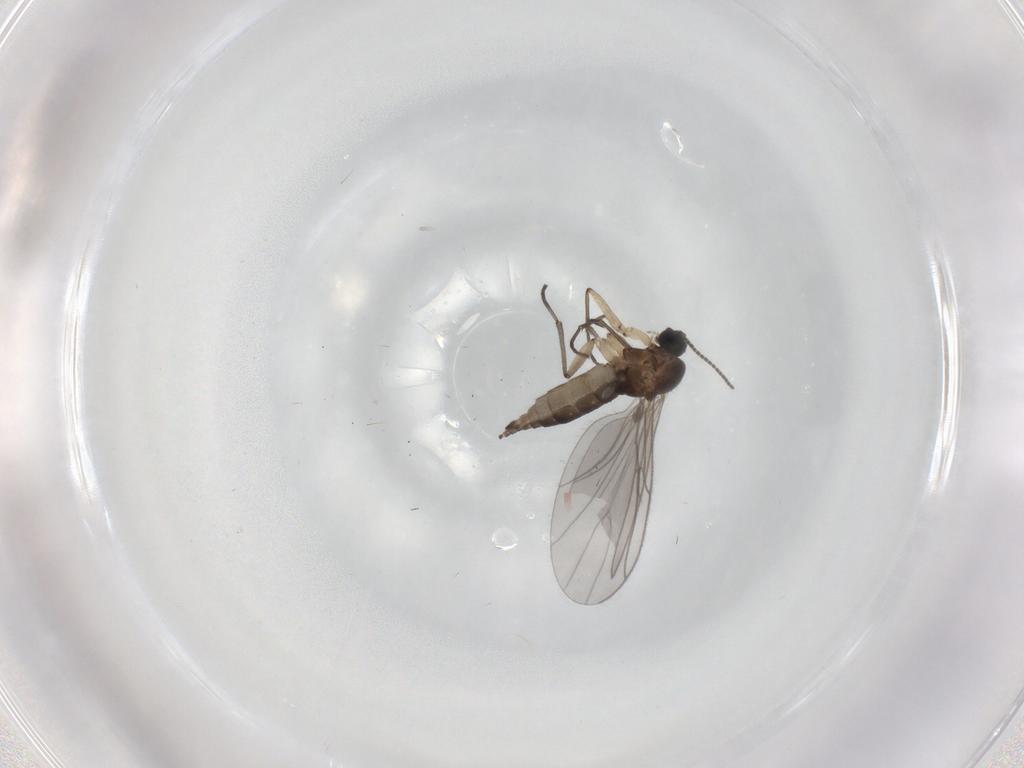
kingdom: Animalia
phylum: Arthropoda
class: Insecta
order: Diptera
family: Sciaridae
